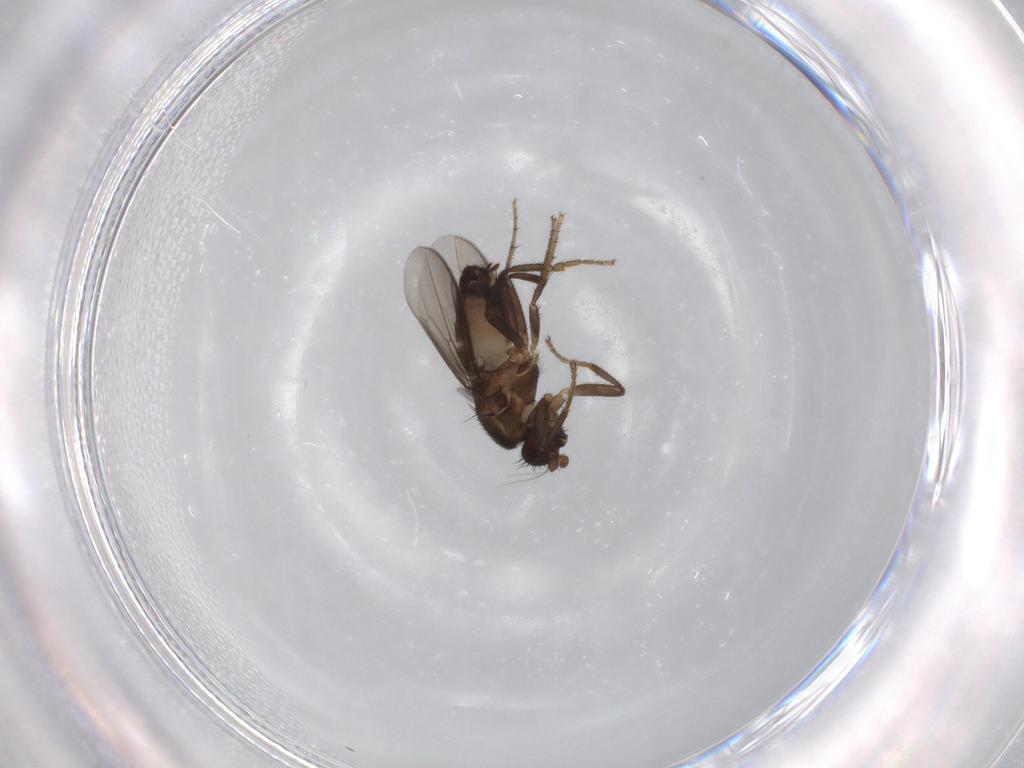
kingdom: Animalia
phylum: Arthropoda
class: Insecta
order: Diptera
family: Sphaeroceridae
